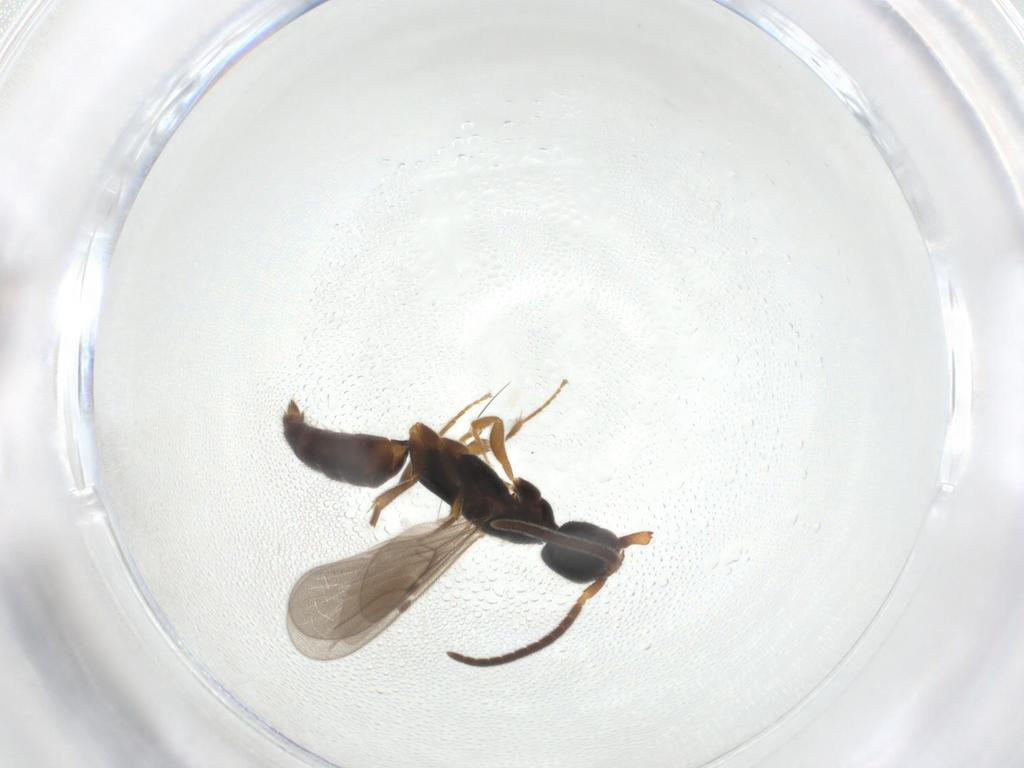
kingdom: Animalia
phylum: Arthropoda
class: Insecta
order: Hymenoptera
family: Bethylidae
